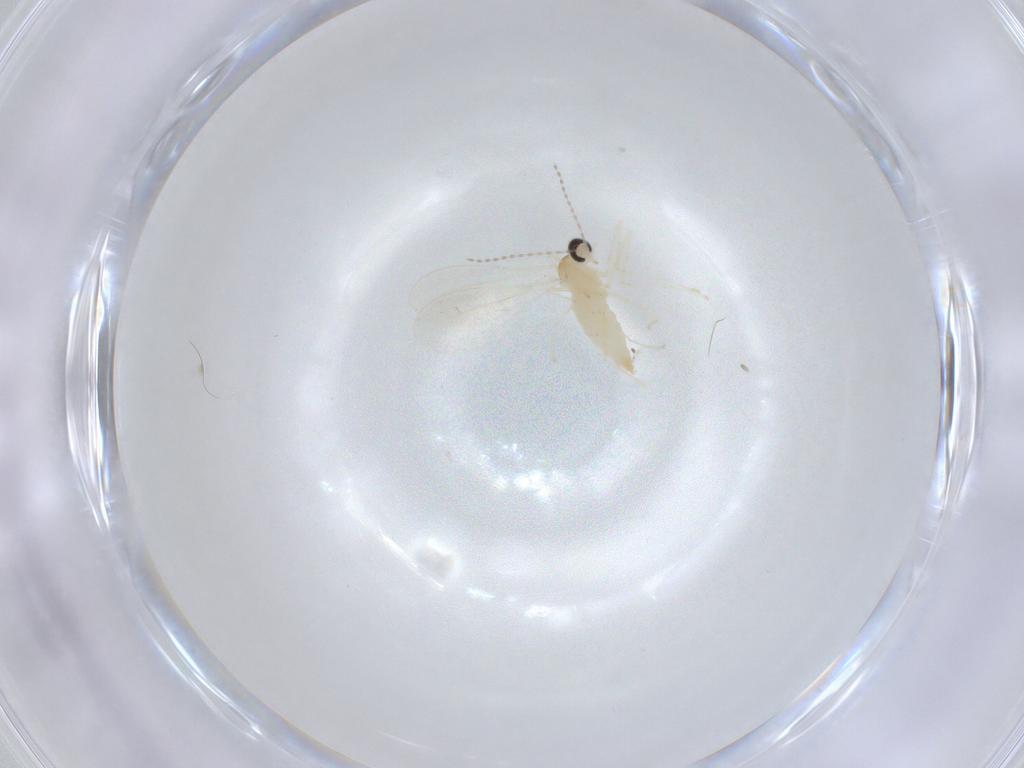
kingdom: Animalia
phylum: Arthropoda
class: Insecta
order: Diptera
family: Cecidomyiidae
